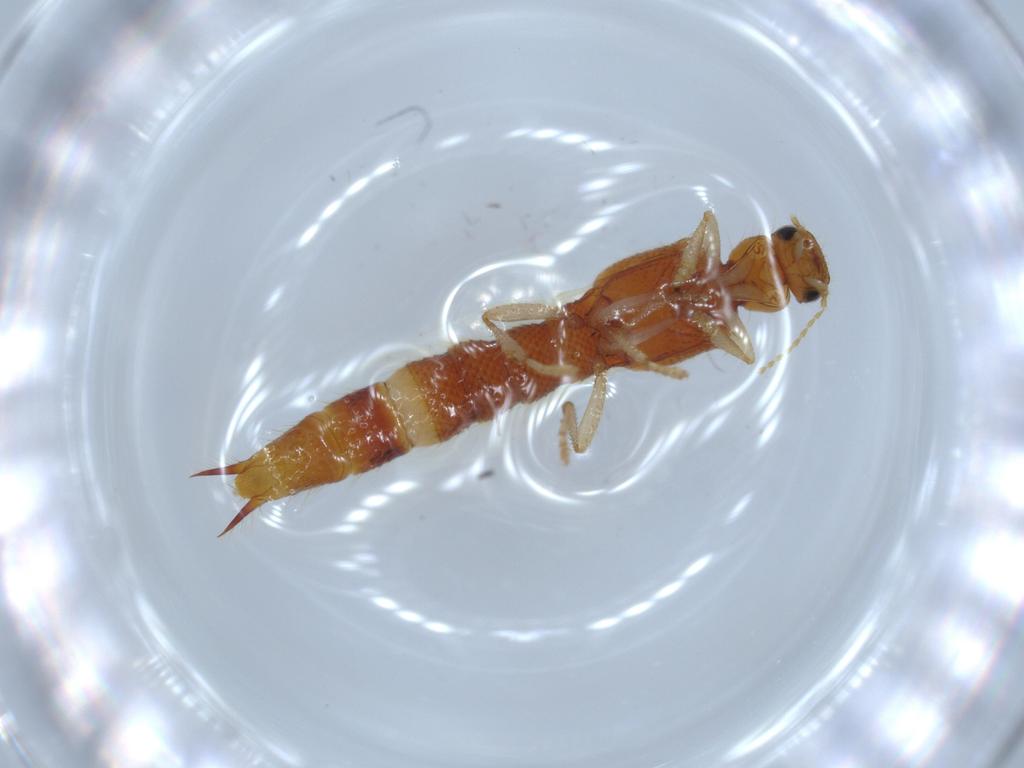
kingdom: Animalia
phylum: Arthropoda
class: Insecta
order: Coleoptera
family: Staphylinidae
